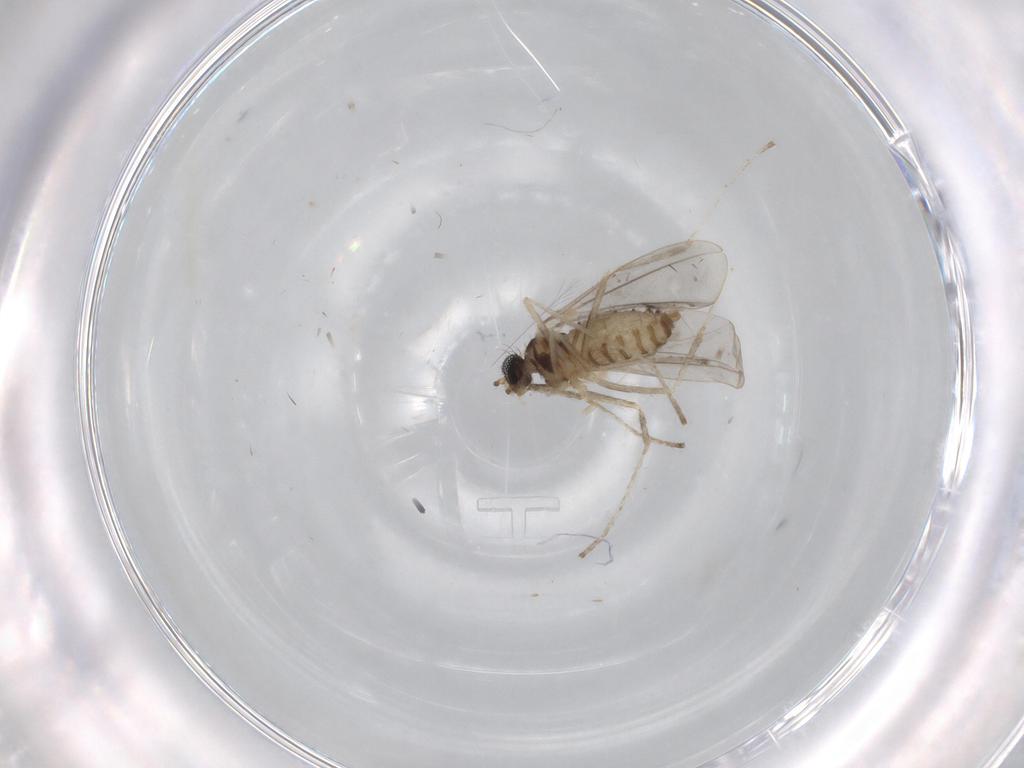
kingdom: Animalia
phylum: Arthropoda
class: Insecta
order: Diptera
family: Cecidomyiidae
